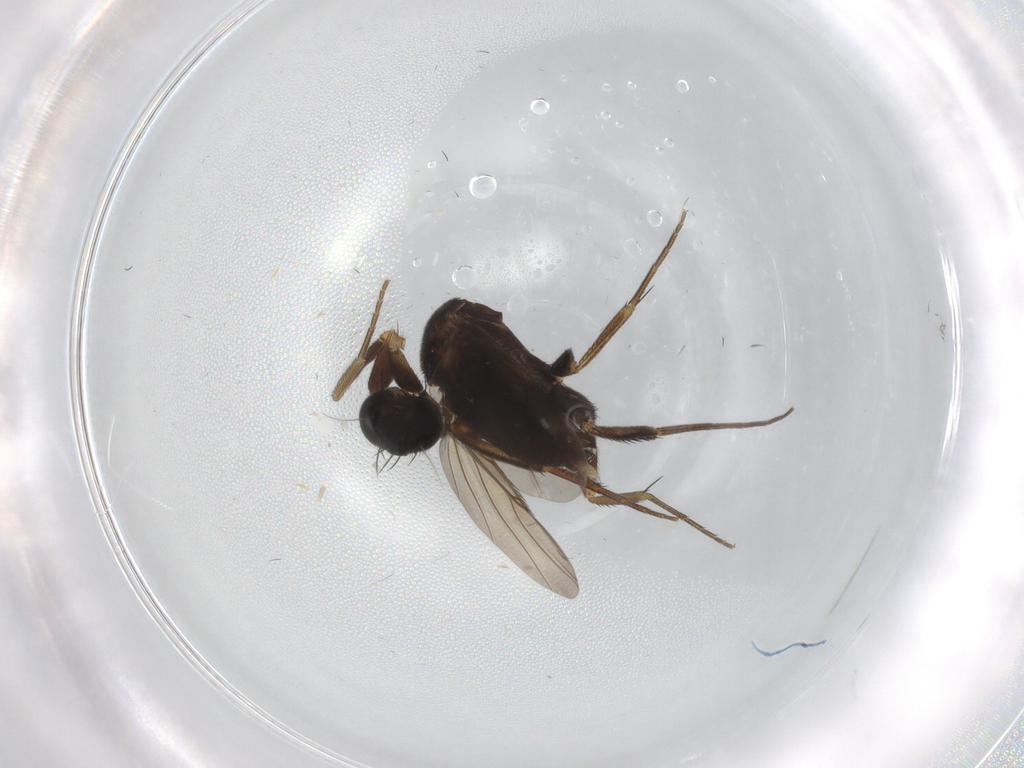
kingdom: Animalia
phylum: Arthropoda
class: Insecta
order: Diptera
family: Phoridae
